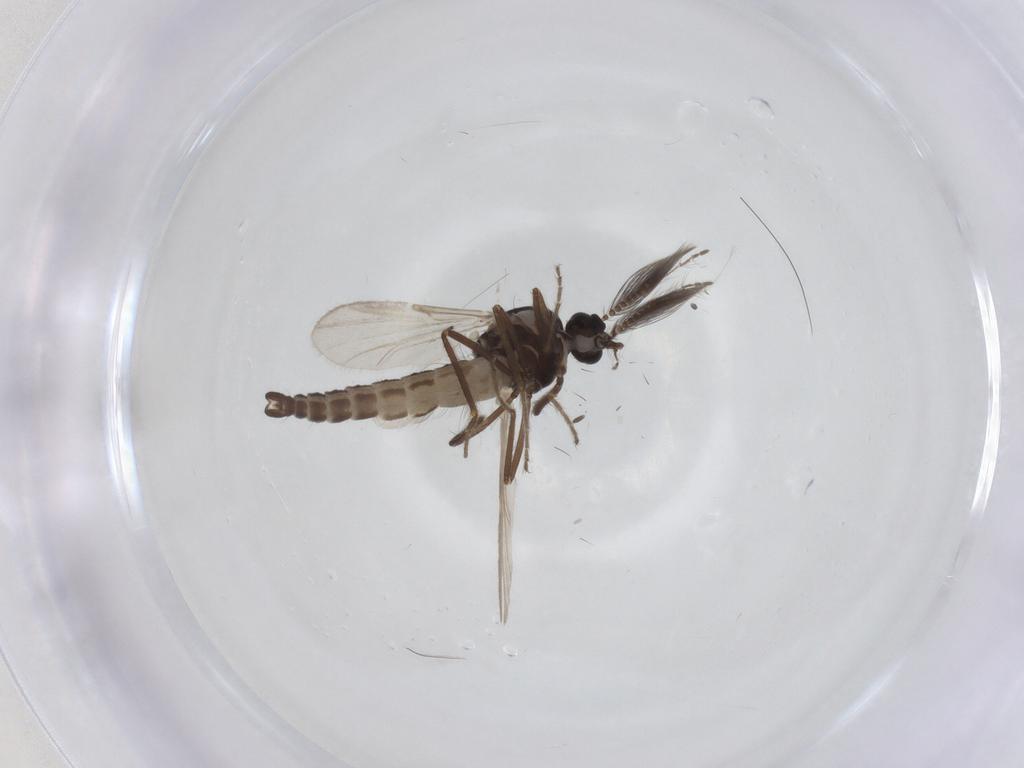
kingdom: Animalia
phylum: Arthropoda
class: Insecta
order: Diptera
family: Ceratopogonidae
